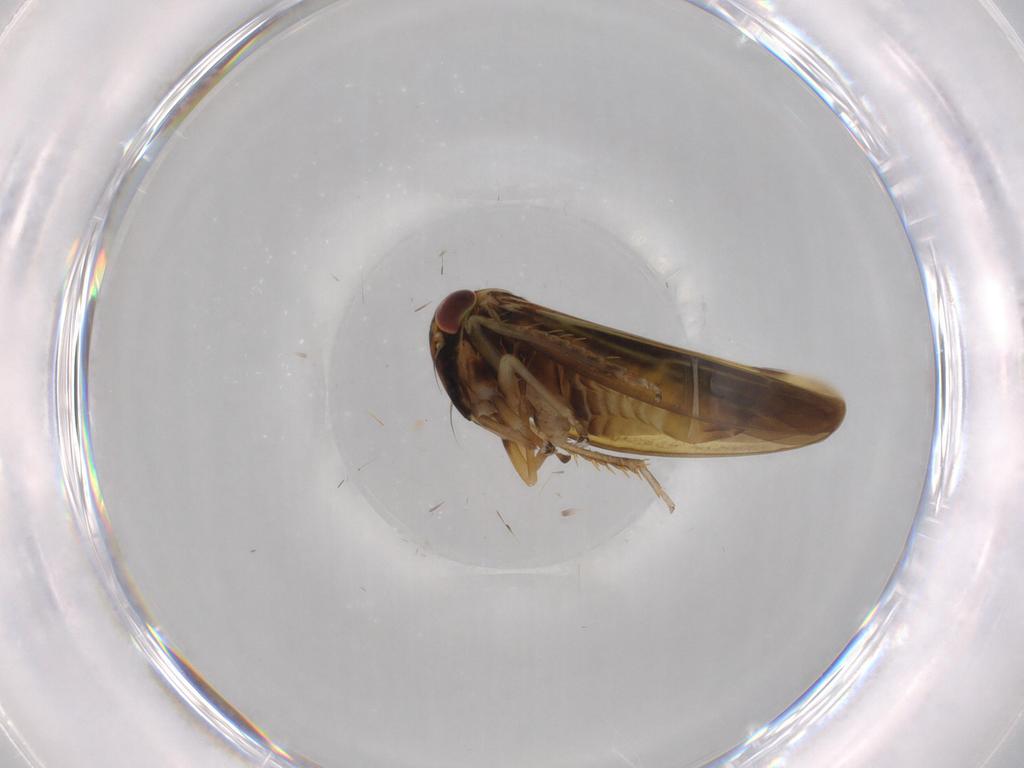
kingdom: Animalia
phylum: Arthropoda
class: Insecta
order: Hemiptera
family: Cicadellidae
